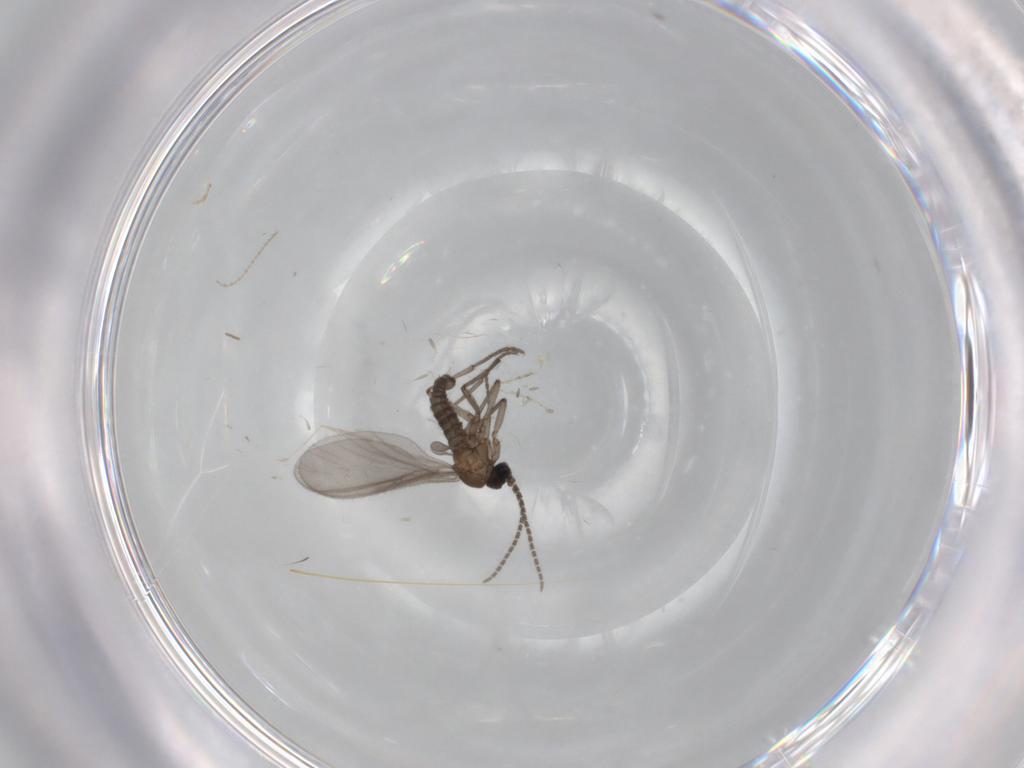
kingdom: Animalia
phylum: Arthropoda
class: Insecta
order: Diptera
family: Sciaridae
